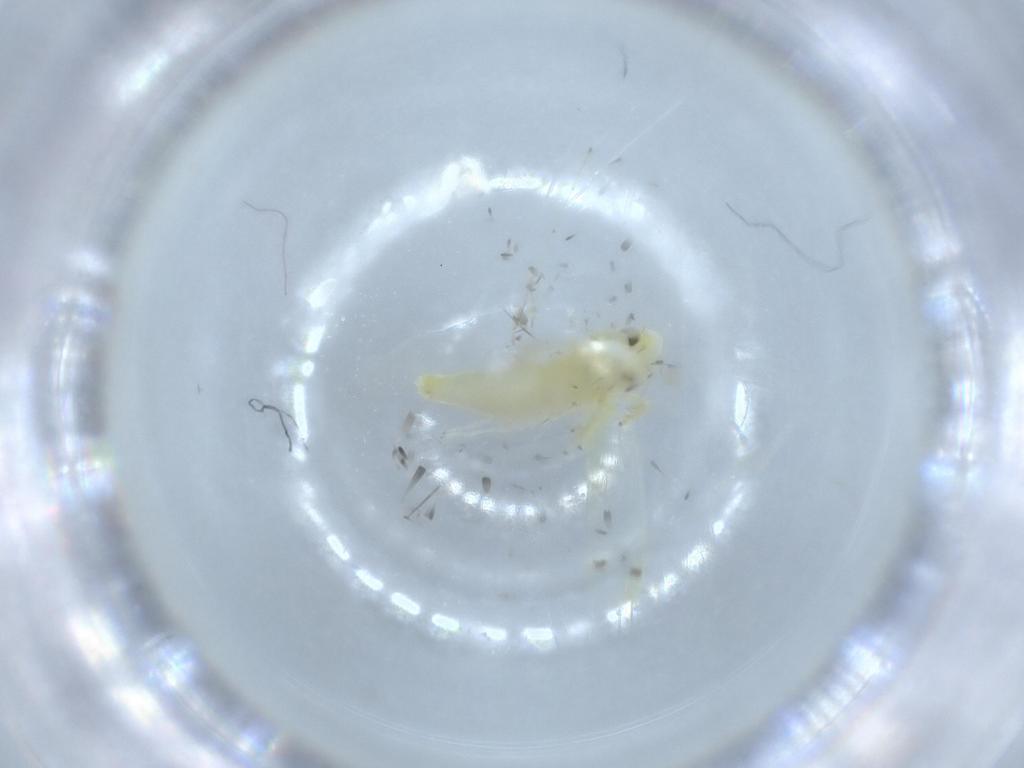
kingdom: Animalia
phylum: Arthropoda
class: Insecta
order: Hemiptera
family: Cicadellidae
